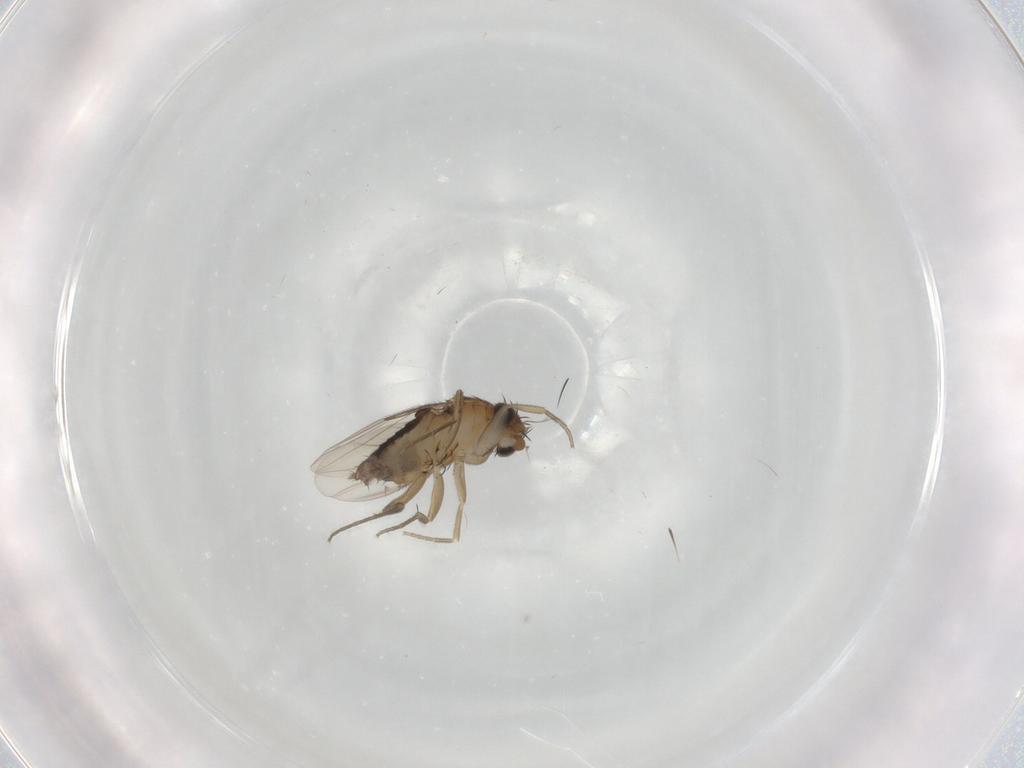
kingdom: Animalia
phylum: Arthropoda
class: Insecta
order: Diptera
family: Phoridae
